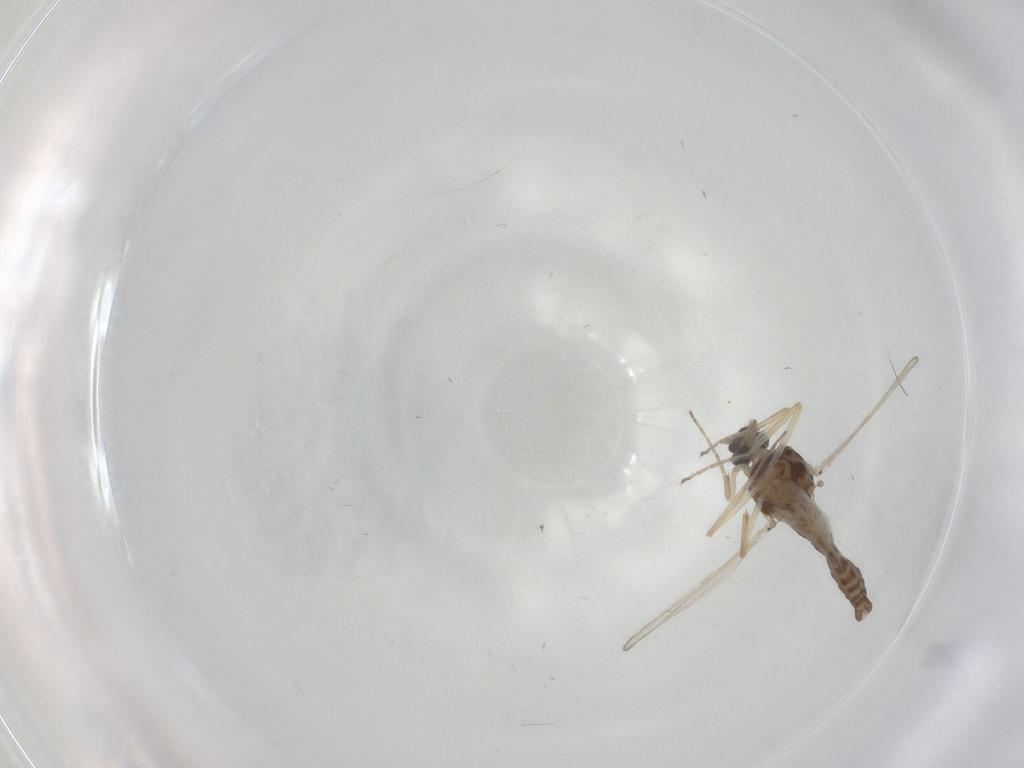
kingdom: Animalia
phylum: Arthropoda
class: Insecta
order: Diptera
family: Ceratopogonidae
